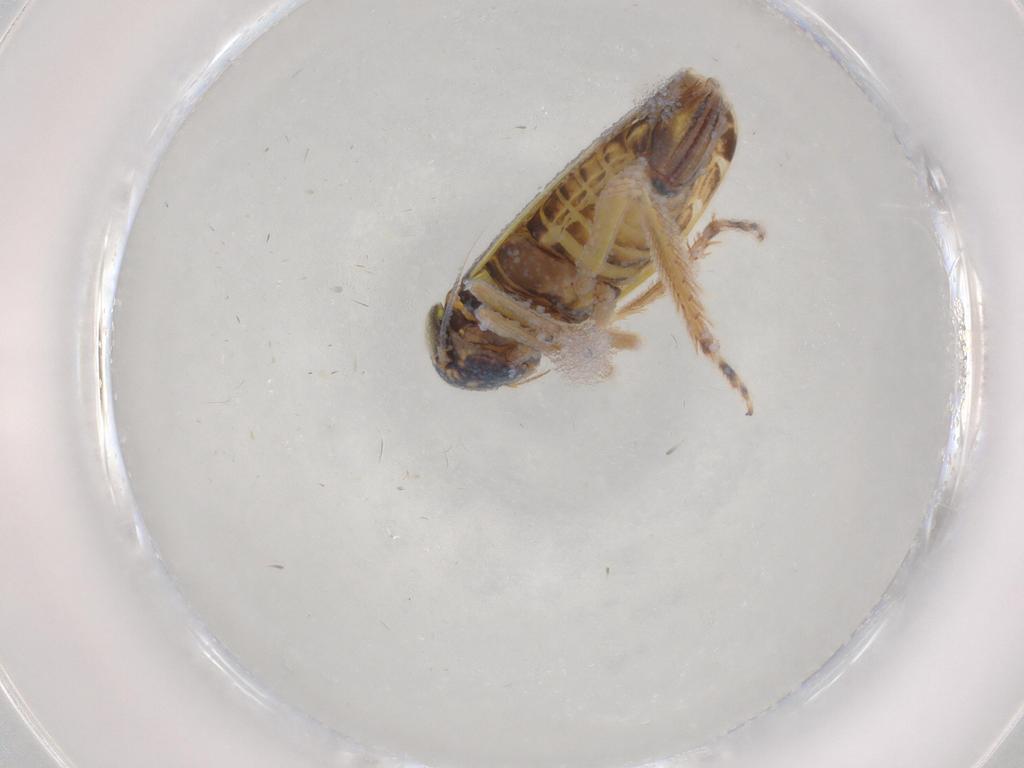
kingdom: Animalia
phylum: Arthropoda
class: Insecta
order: Hemiptera
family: Cicadellidae
